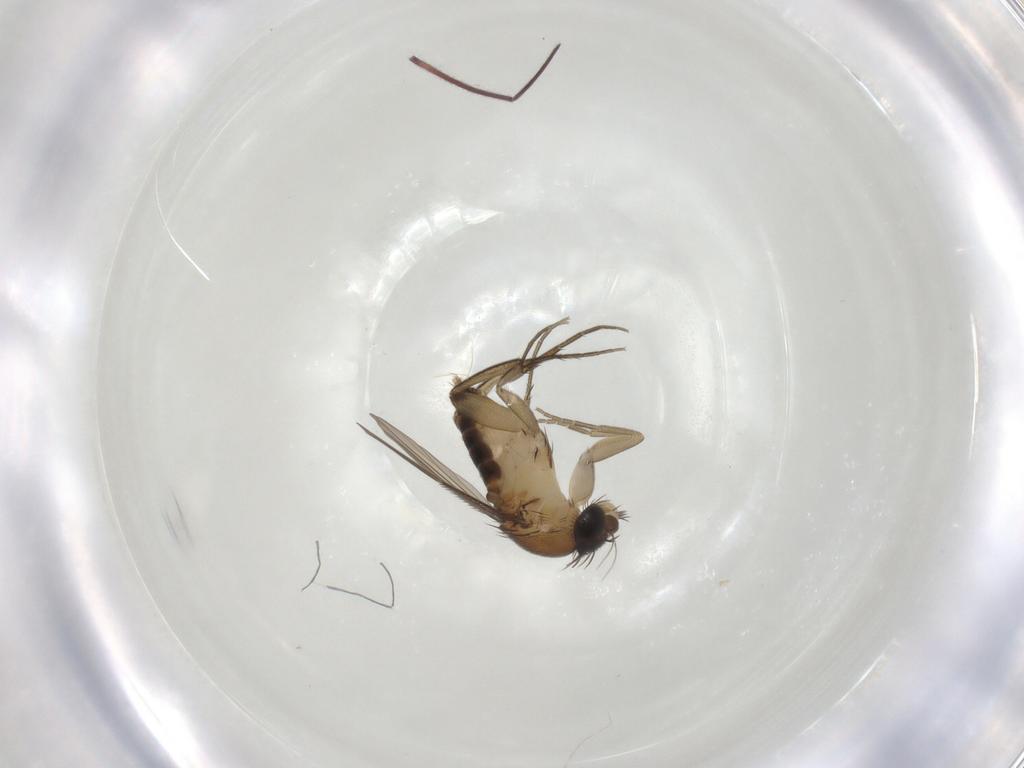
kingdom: Animalia
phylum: Arthropoda
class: Insecta
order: Diptera
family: Phoridae
